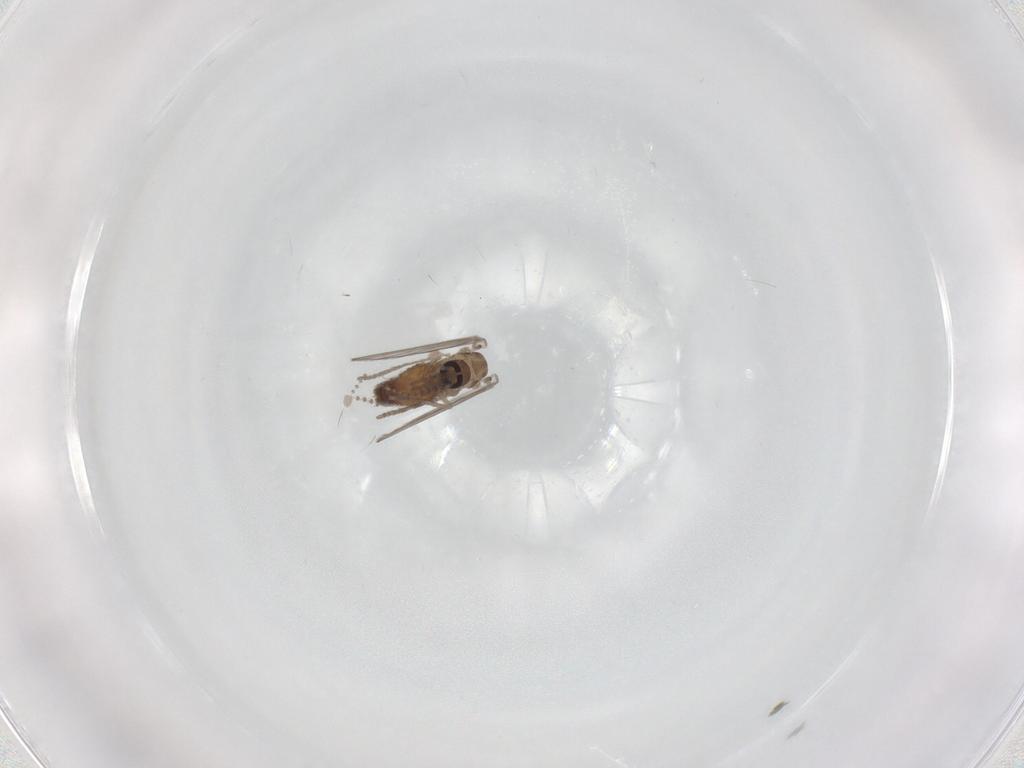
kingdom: Animalia
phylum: Arthropoda
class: Insecta
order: Diptera
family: Psychodidae
